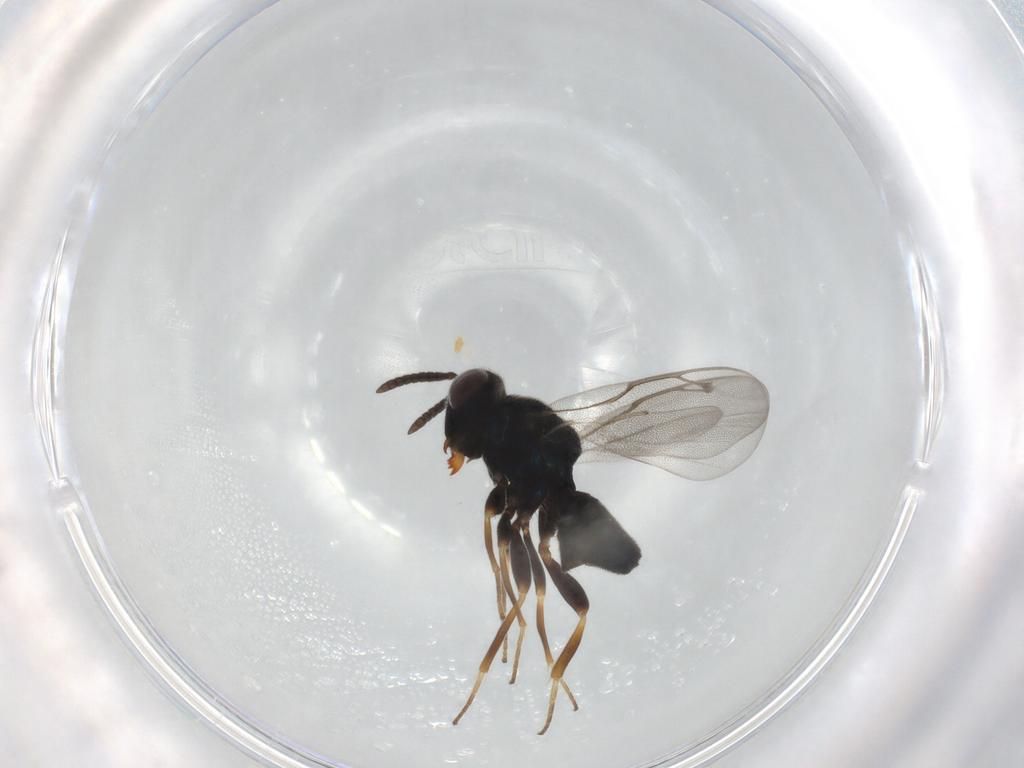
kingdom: Animalia
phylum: Arthropoda
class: Insecta
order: Hymenoptera
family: Pteromalidae
